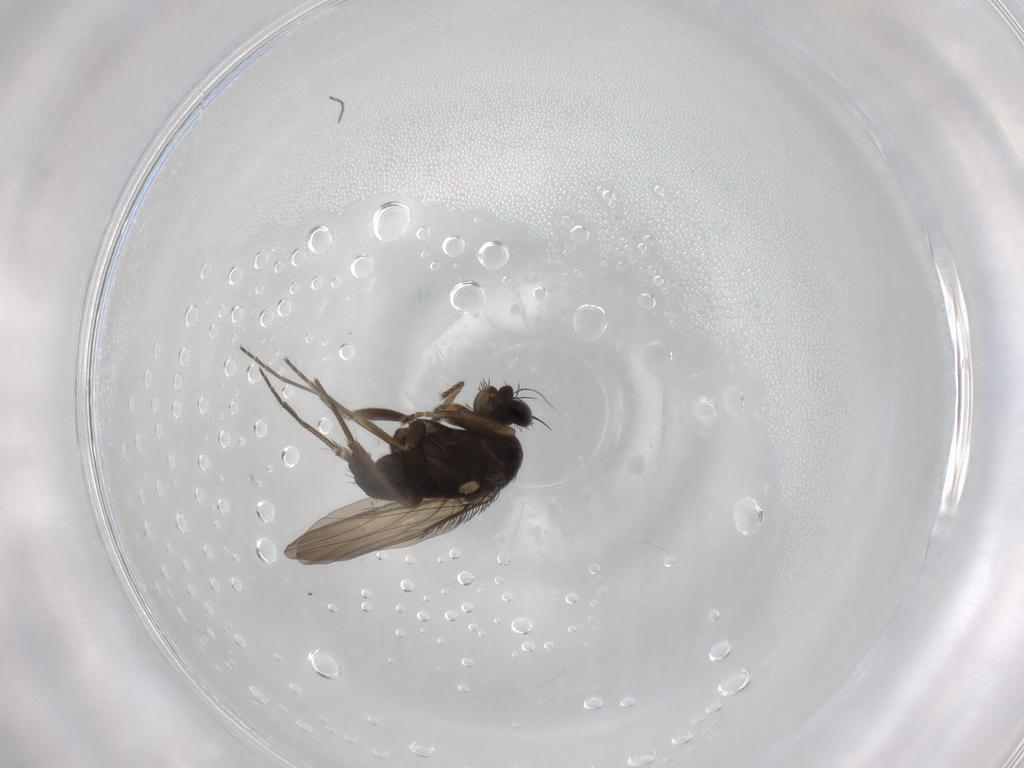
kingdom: Animalia
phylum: Arthropoda
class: Insecta
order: Diptera
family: Phoridae
